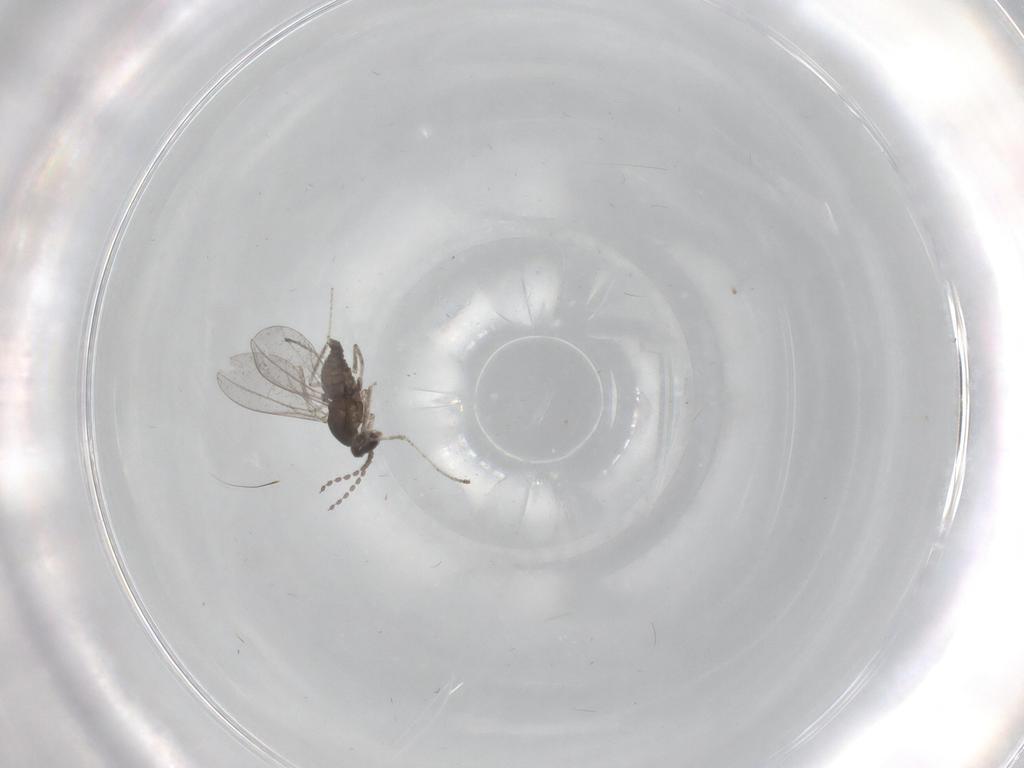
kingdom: Animalia
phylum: Arthropoda
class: Insecta
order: Diptera
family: Cecidomyiidae
